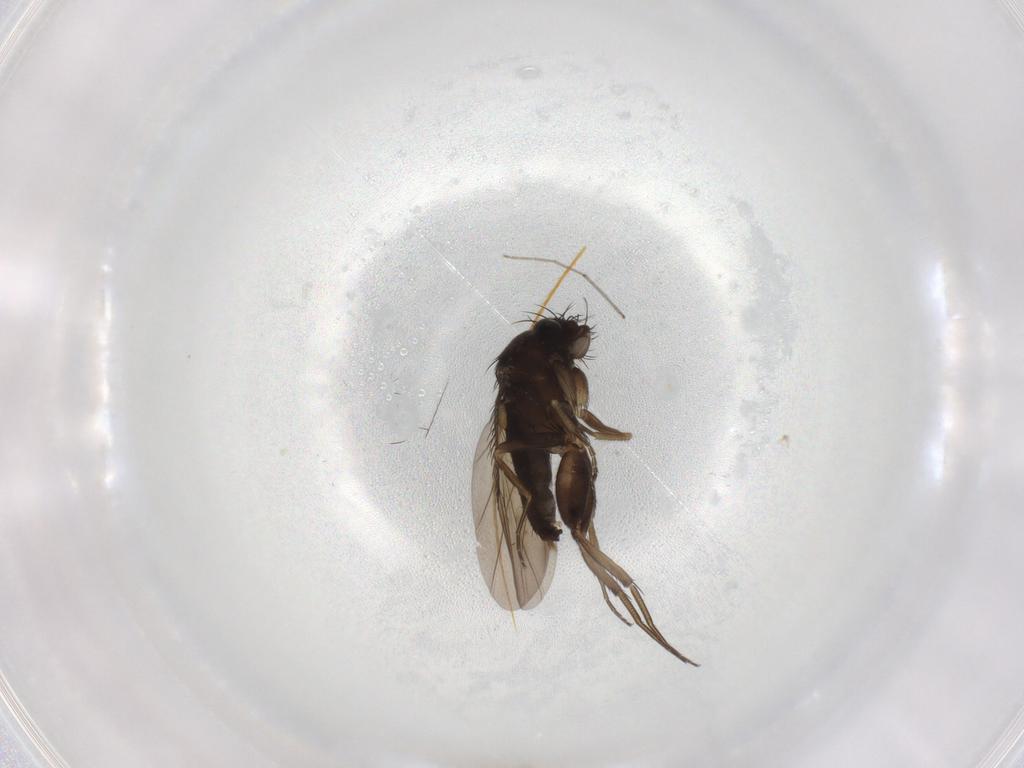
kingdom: Animalia
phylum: Arthropoda
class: Insecta
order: Diptera
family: Phoridae
